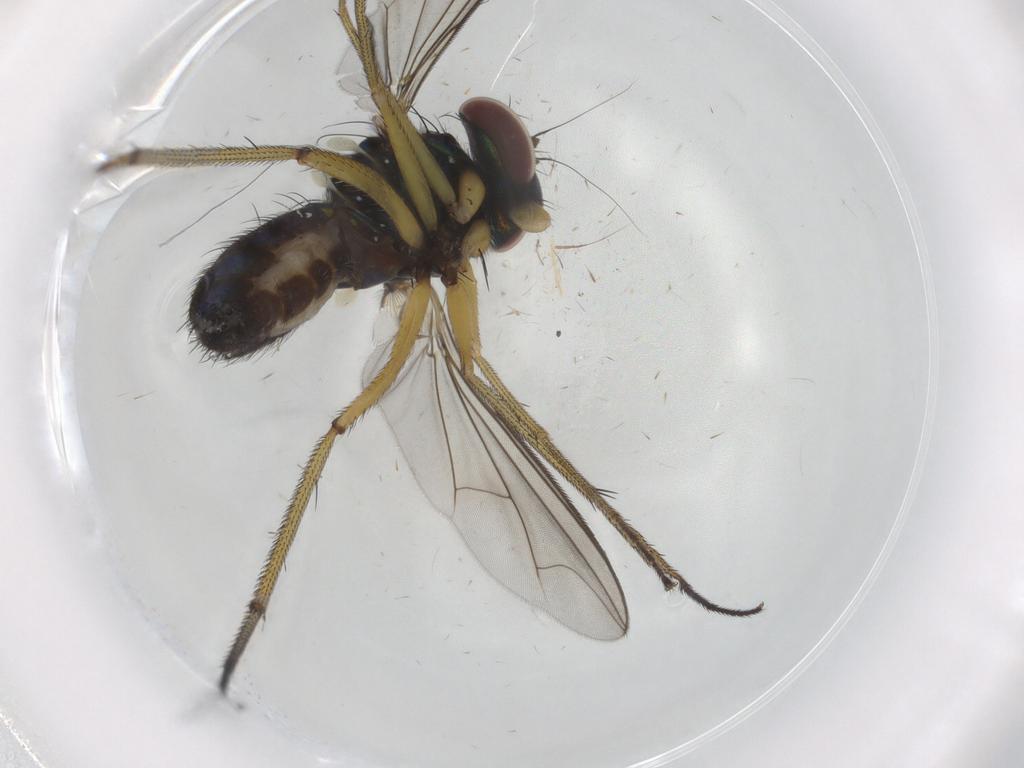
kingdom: Animalia
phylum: Arthropoda
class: Insecta
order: Diptera
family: Dolichopodidae
